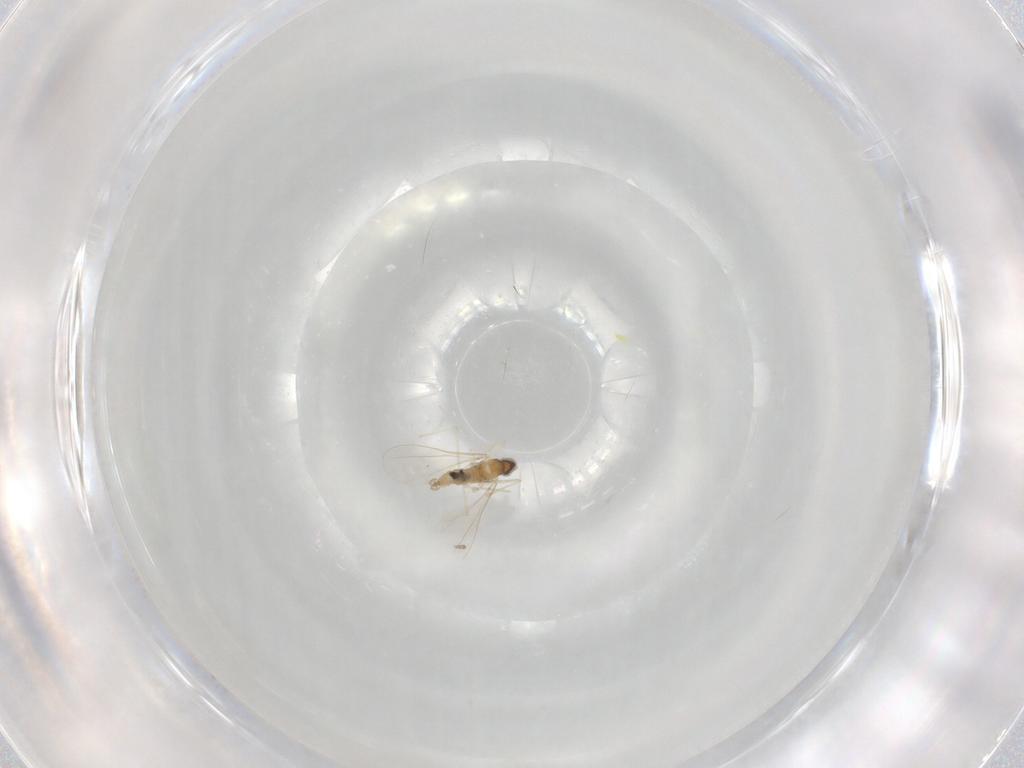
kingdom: Animalia
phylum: Arthropoda
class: Insecta
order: Diptera
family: Cecidomyiidae
